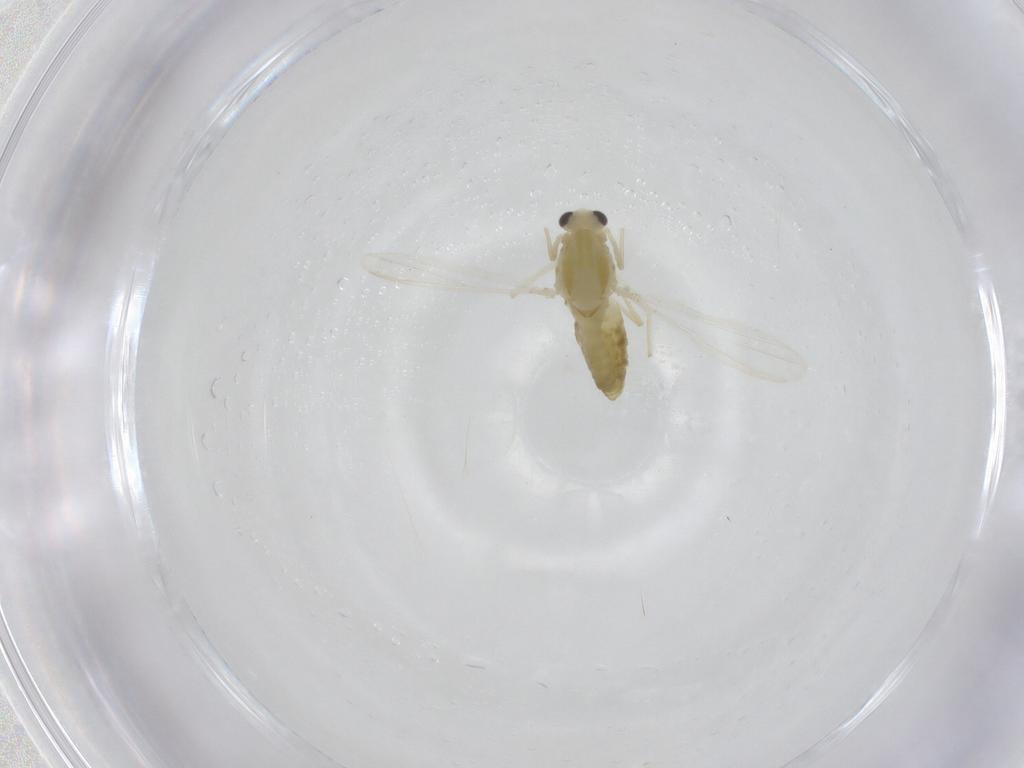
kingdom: Animalia
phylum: Arthropoda
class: Insecta
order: Diptera
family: Chironomidae
